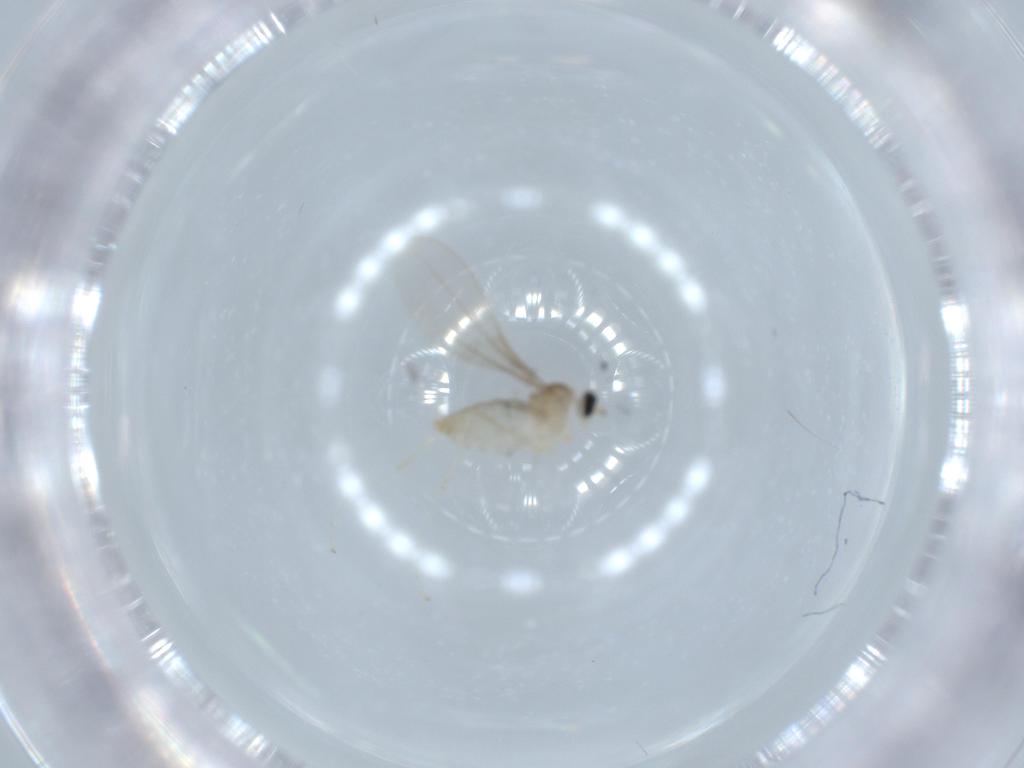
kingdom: Animalia
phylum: Arthropoda
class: Insecta
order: Diptera
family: Cecidomyiidae
